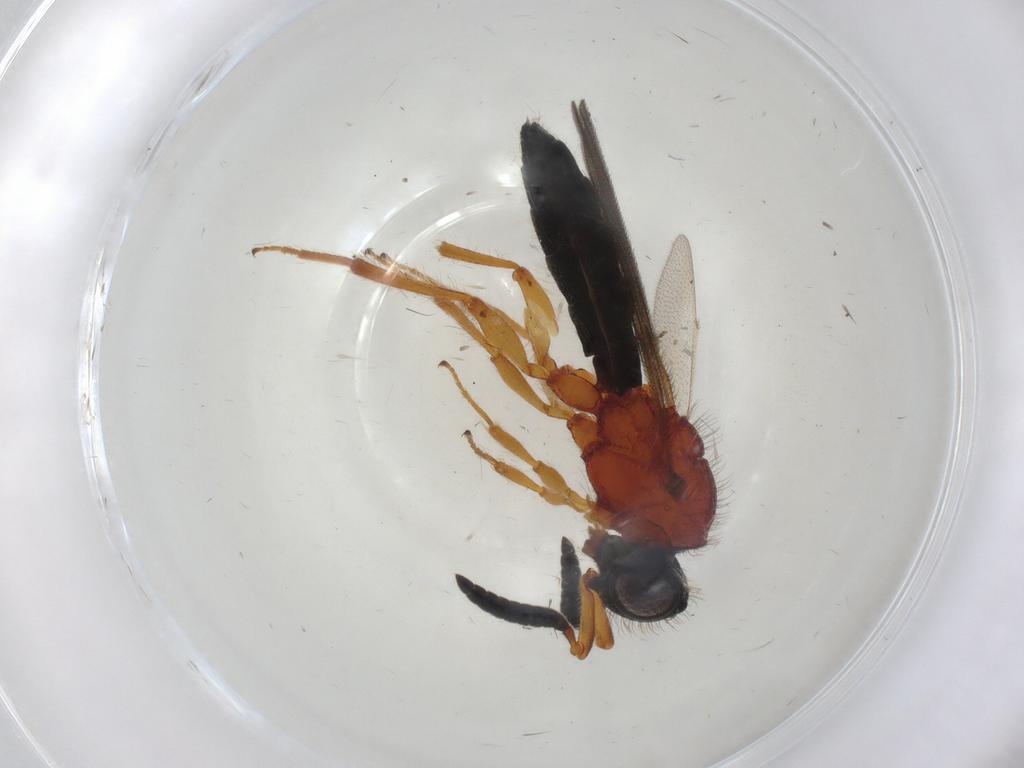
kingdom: Animalia
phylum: Arthropoda
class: Insecta
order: Hymenoptera
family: Scelionidae
